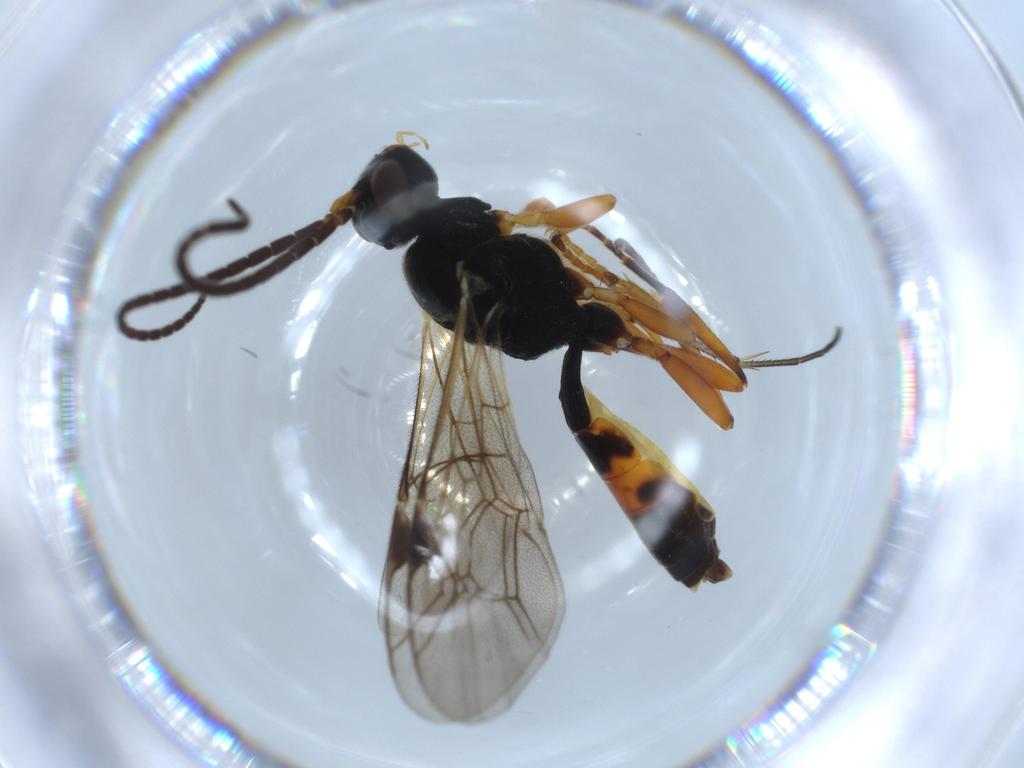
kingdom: Animalia
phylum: Arthropoda
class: Insecta
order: Hymenoptera
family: Ichneumonidae
